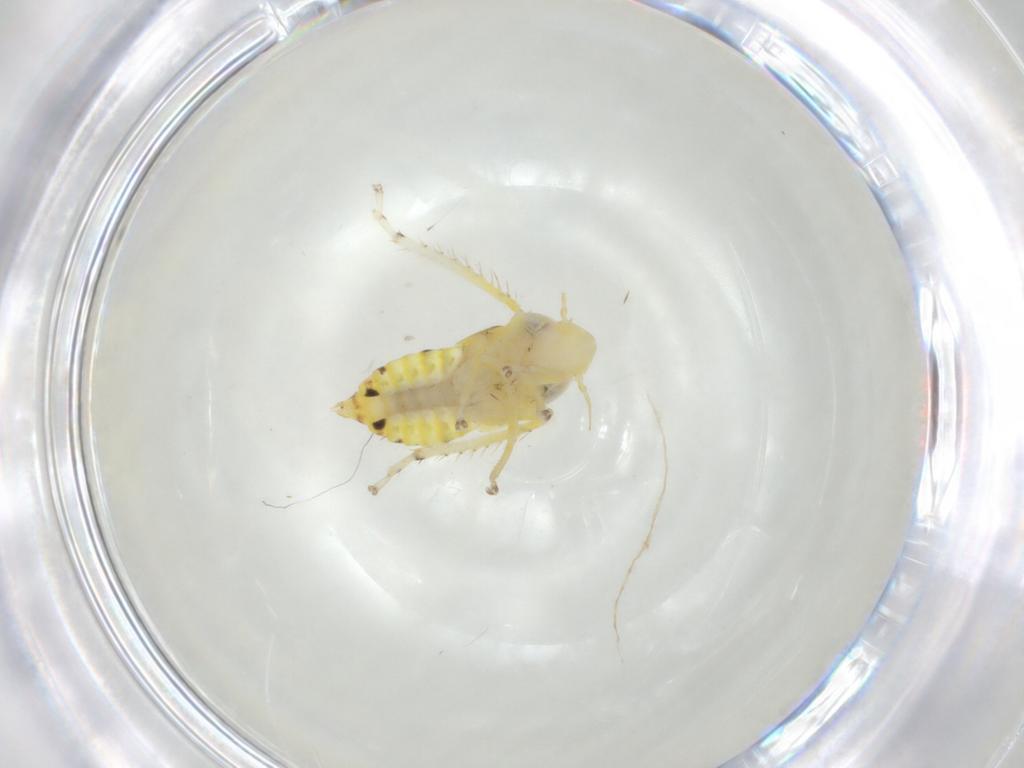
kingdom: Animalia
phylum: Arthropoda
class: Insecta
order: Hemiptera
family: Cicadellidae
